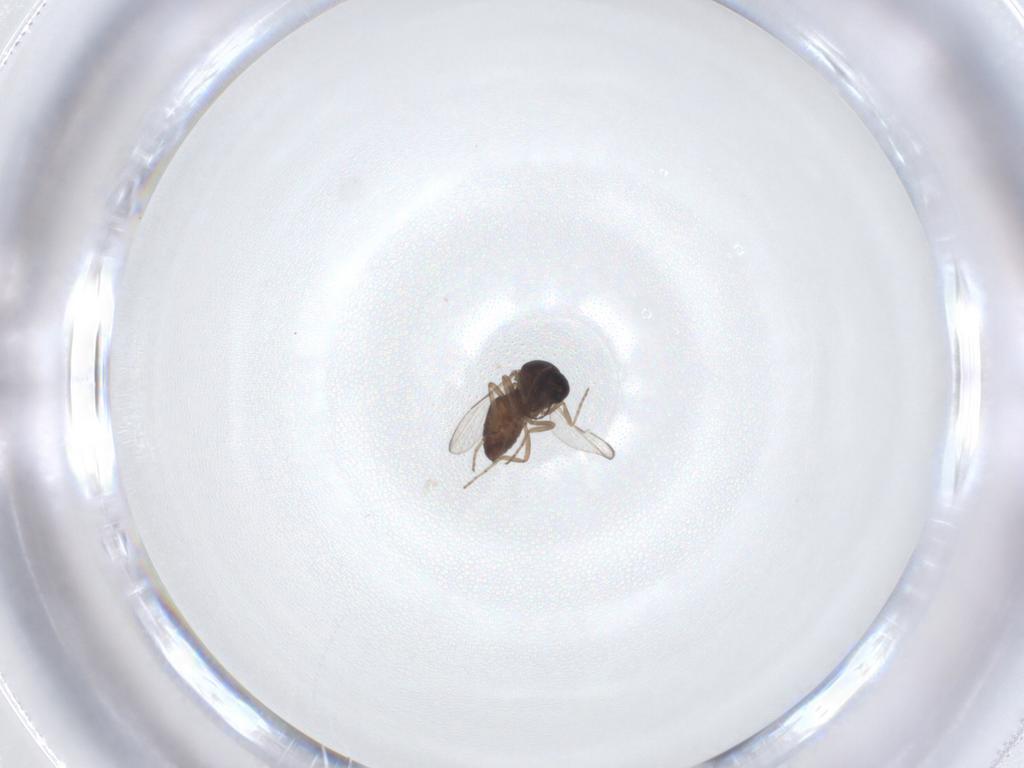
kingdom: Animalia
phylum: Arthropoda
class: Insecta
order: Diptera
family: Ceratopogonidae
